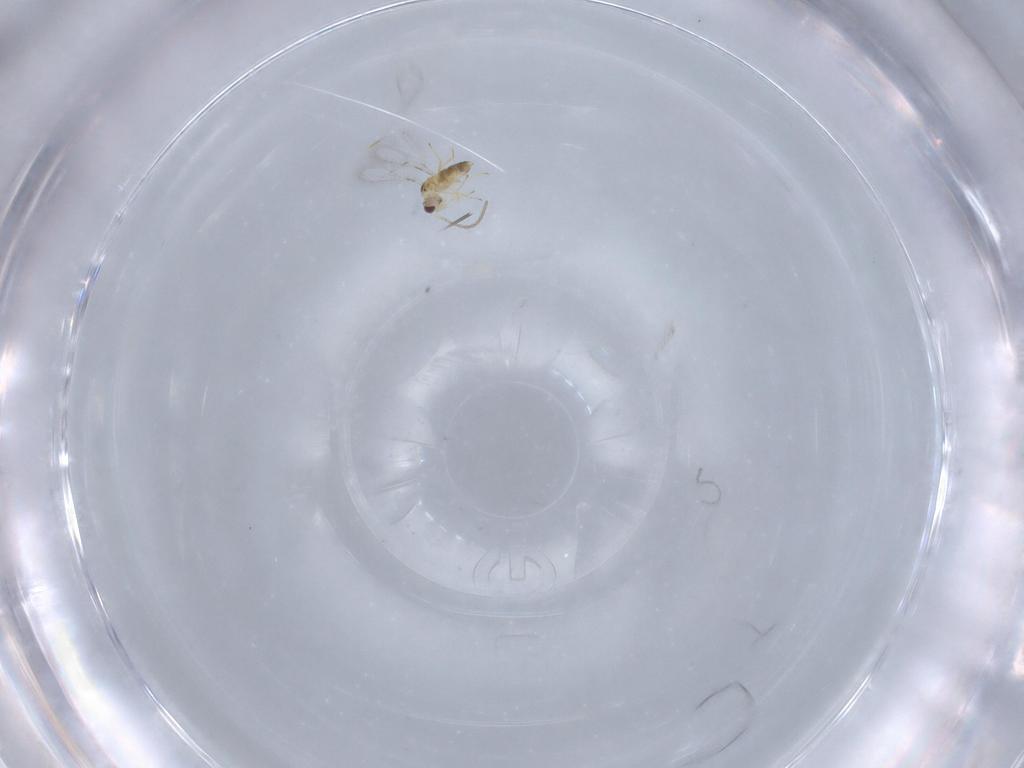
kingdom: Animalia
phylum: Arthropoda
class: Insecta
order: Hymenoptera
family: Mymaridae
